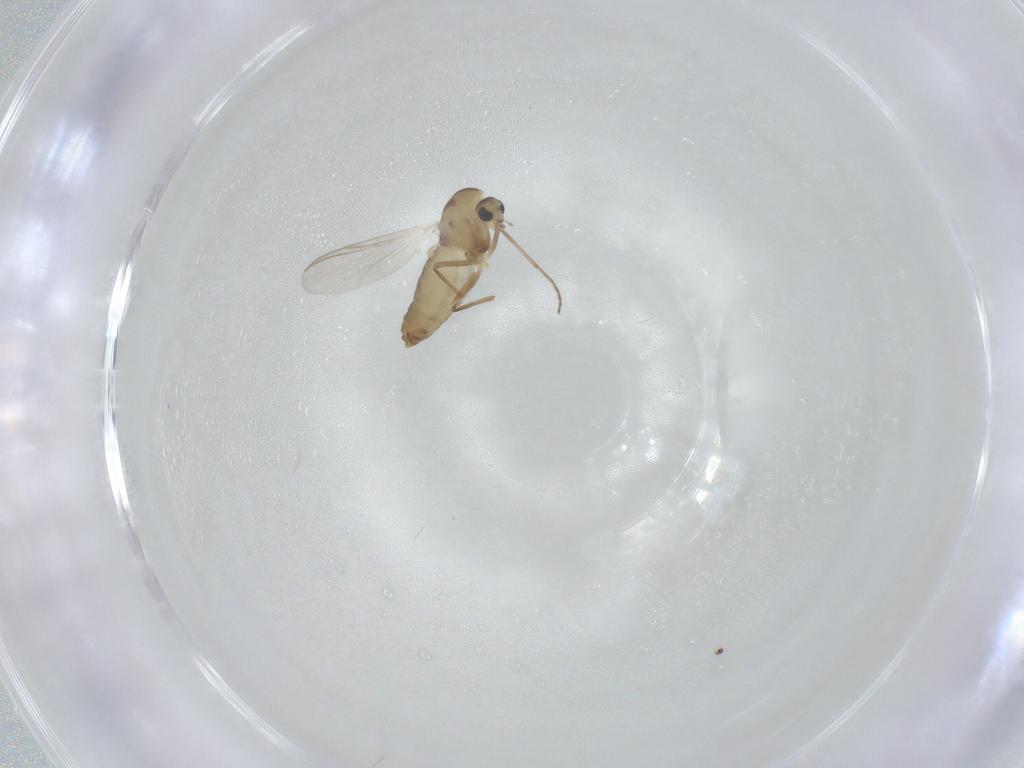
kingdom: Animalia
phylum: Arthropoda
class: Insecta
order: Diptera
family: Chironomidae
